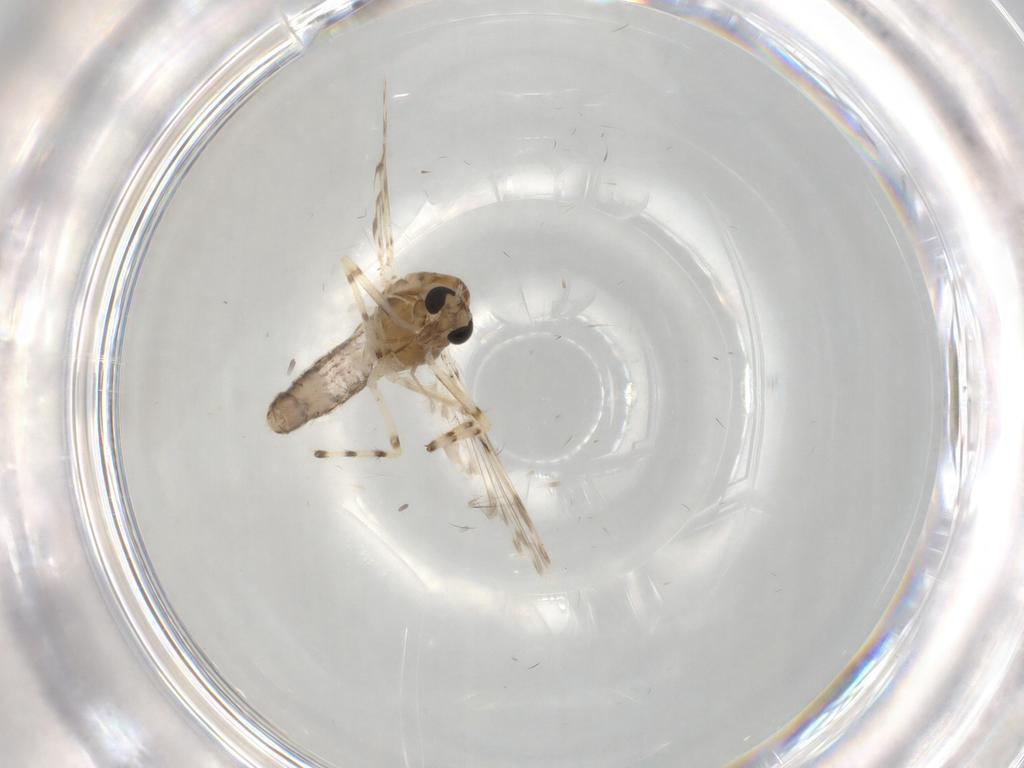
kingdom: Animalia
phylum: Arthropoda
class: Insecta
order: Diptera
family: Chironomidae
